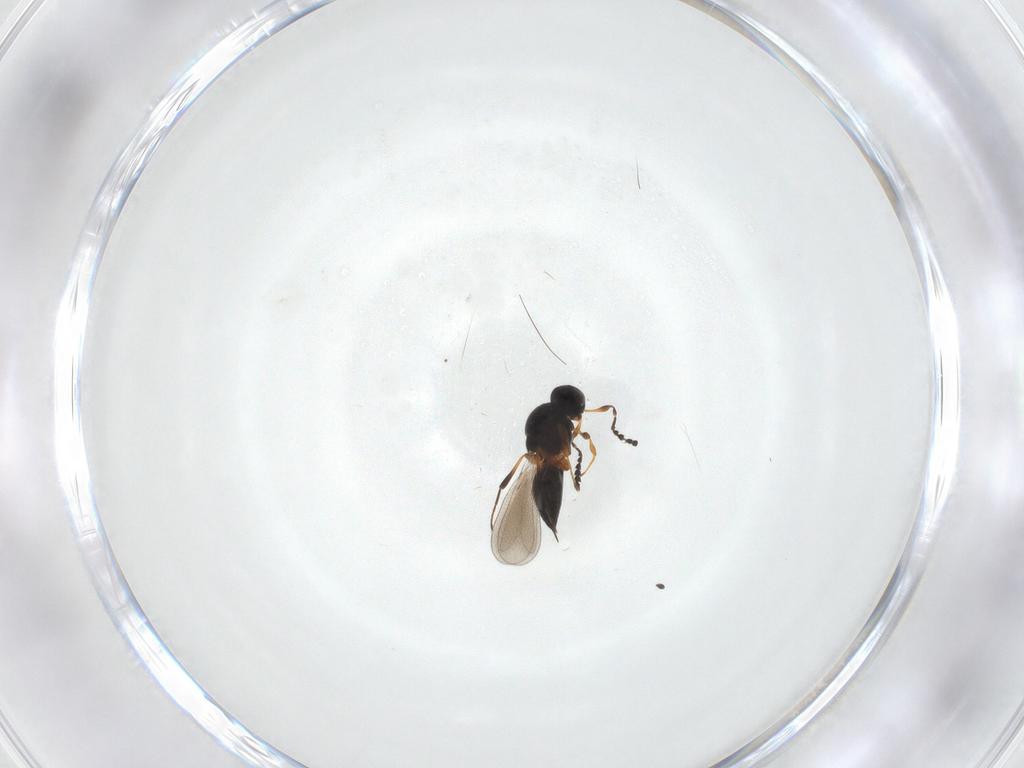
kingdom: Animalia
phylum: Arthropoda
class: Insecta
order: Hymenoptera
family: Platygastridae
